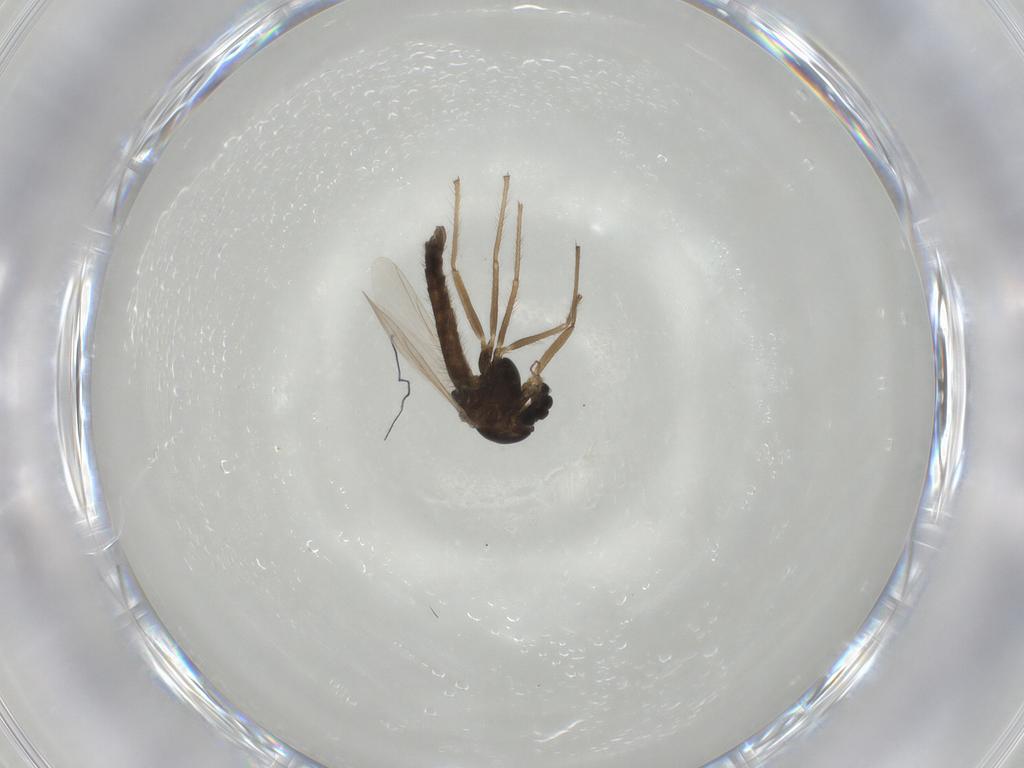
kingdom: Animalia
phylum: Arthropoda
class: Insecta
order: Diptera
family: Chironomidae
